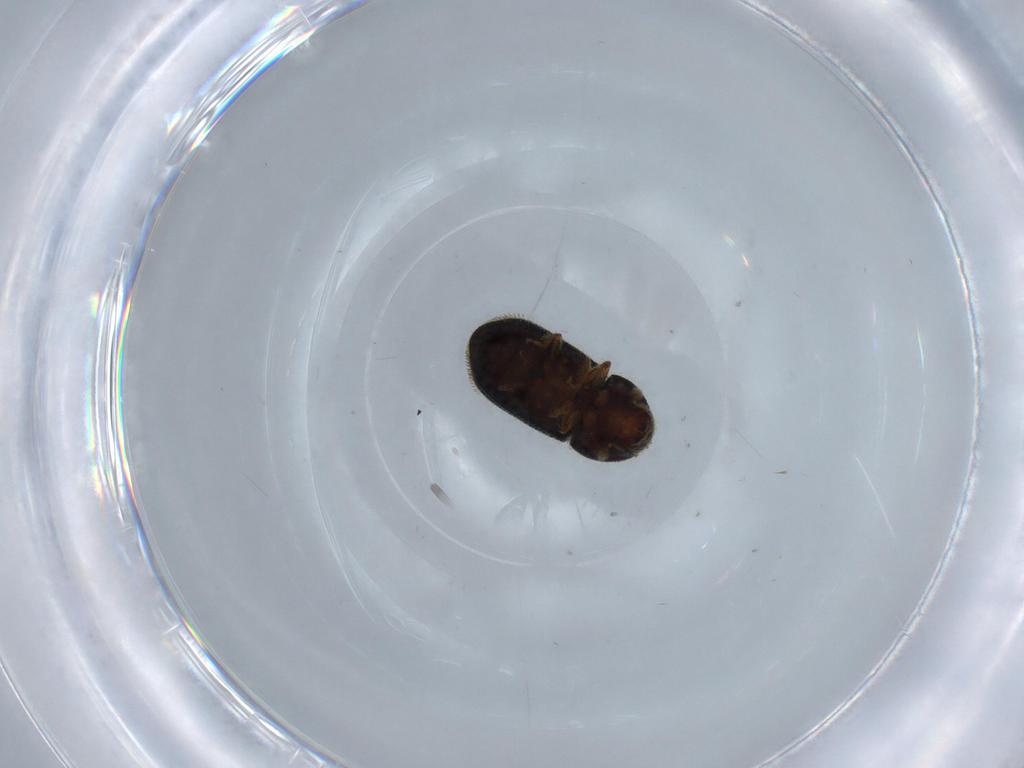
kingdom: Animalia
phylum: Arthropoda
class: Insecta
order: Coleoptera
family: Curculionidae
